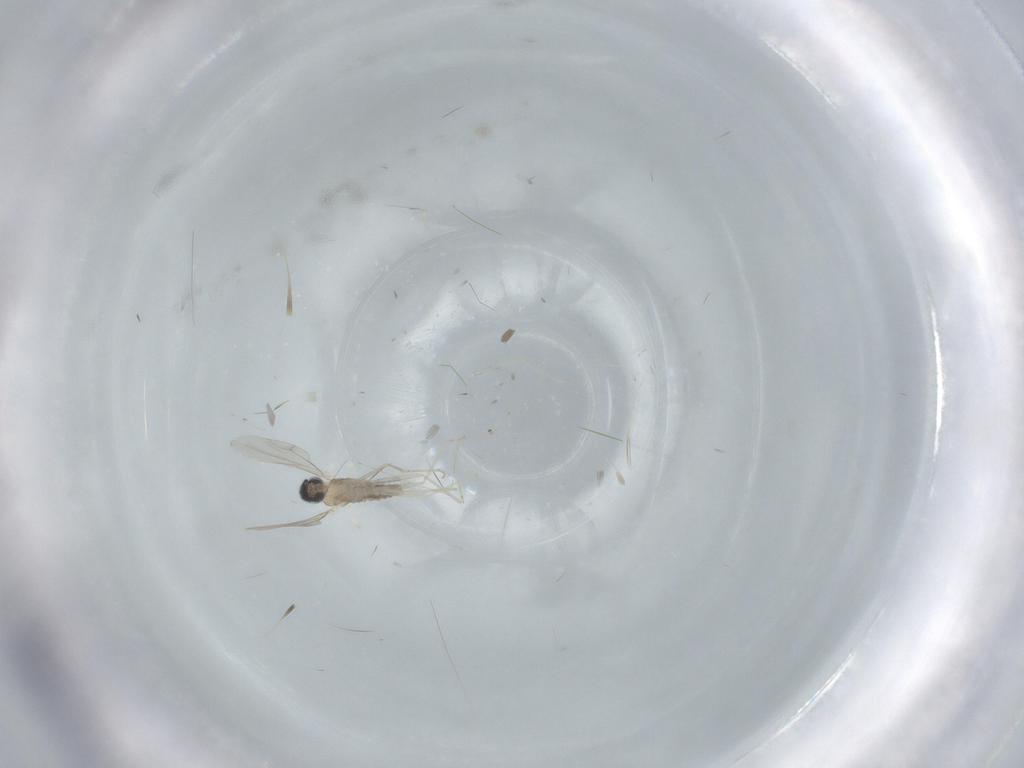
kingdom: Animalia
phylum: Arthropoda
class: Insecta
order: Diptera
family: Cecidomyiidae
